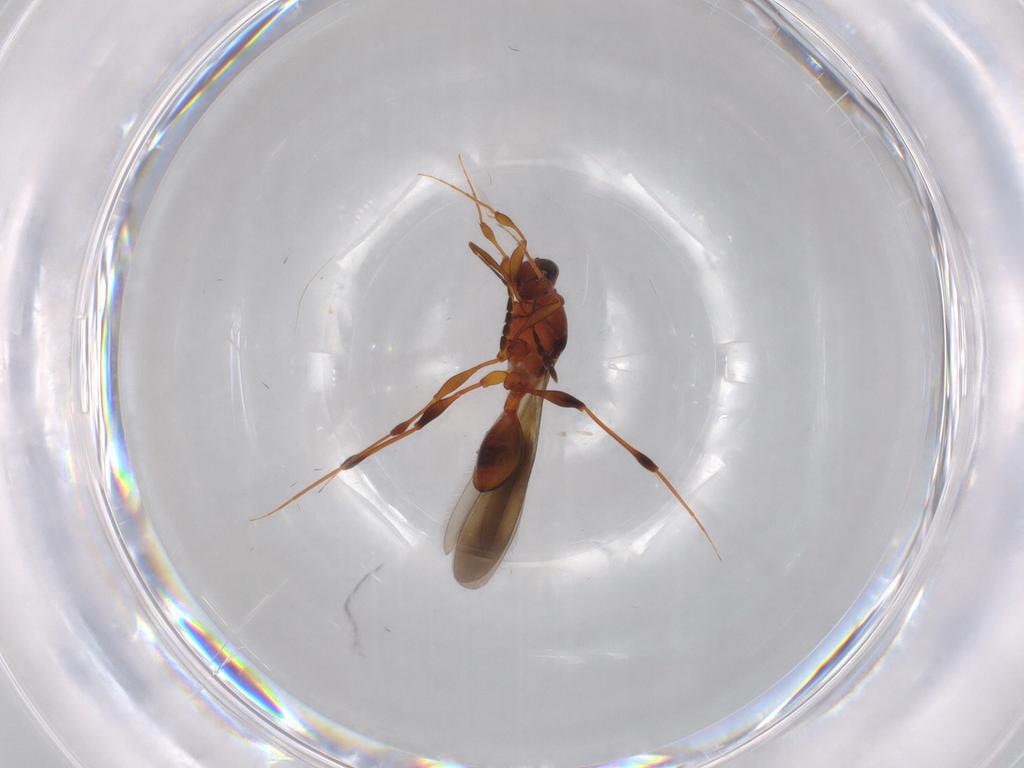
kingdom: Animalia
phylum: Arthropoda
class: Insecta
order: Hymenoptera
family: Platygastridae
